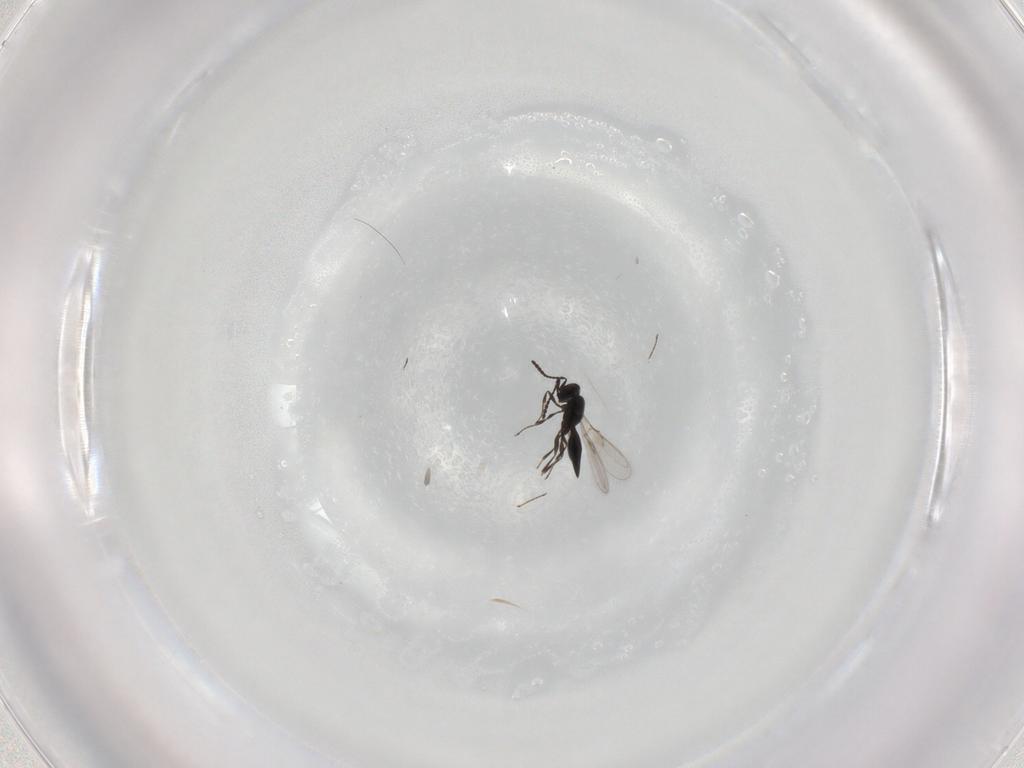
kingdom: Animalia
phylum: Arthropoda
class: Insecta
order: Hymenoptera
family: Scelionidae
